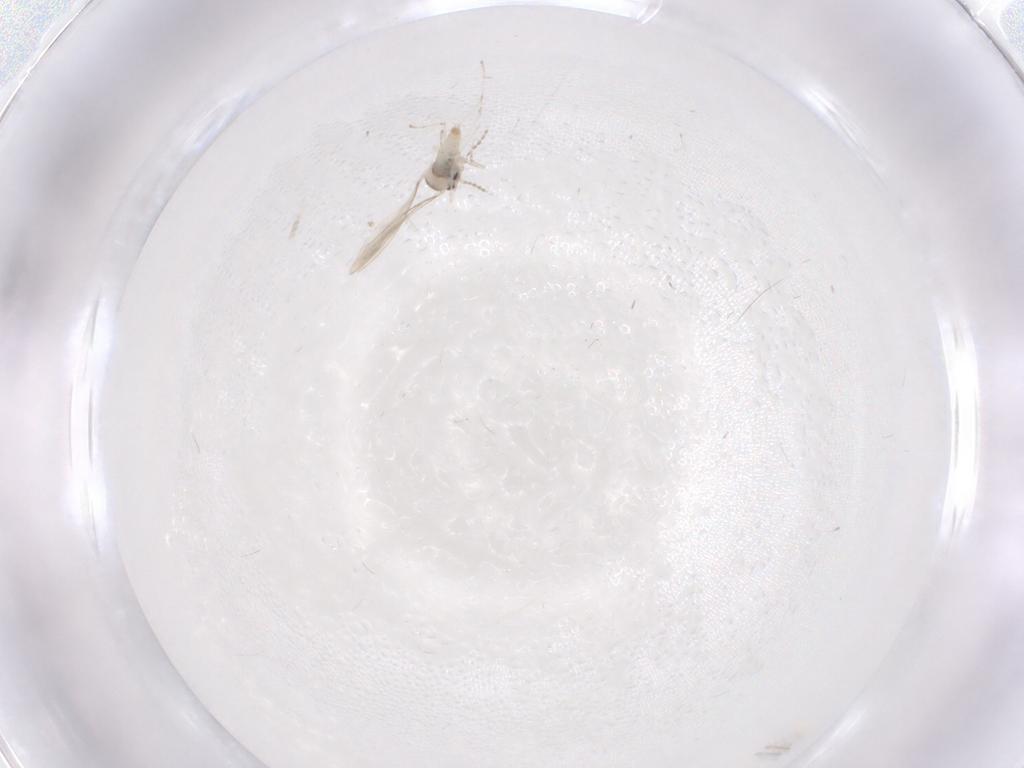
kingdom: Animalia
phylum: Arthropoda
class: Insecta
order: Diptera
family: Cecidomyiidae
